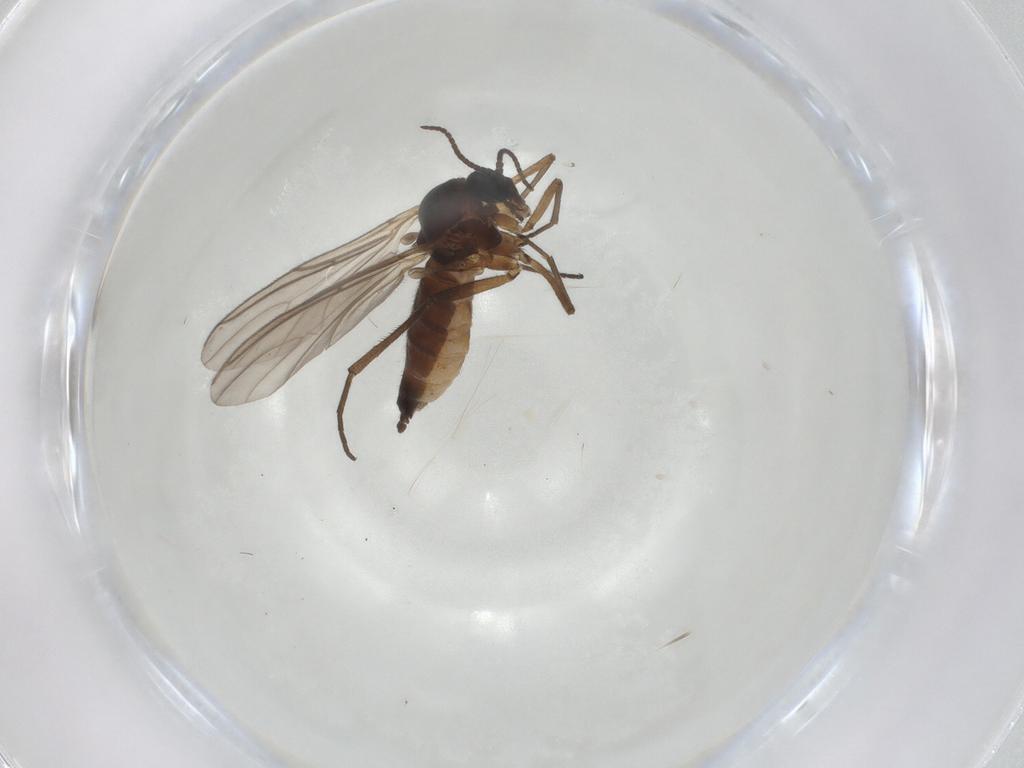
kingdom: Animalia
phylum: Arthropoda
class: Insecta
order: Diptera
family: Sciaridae
